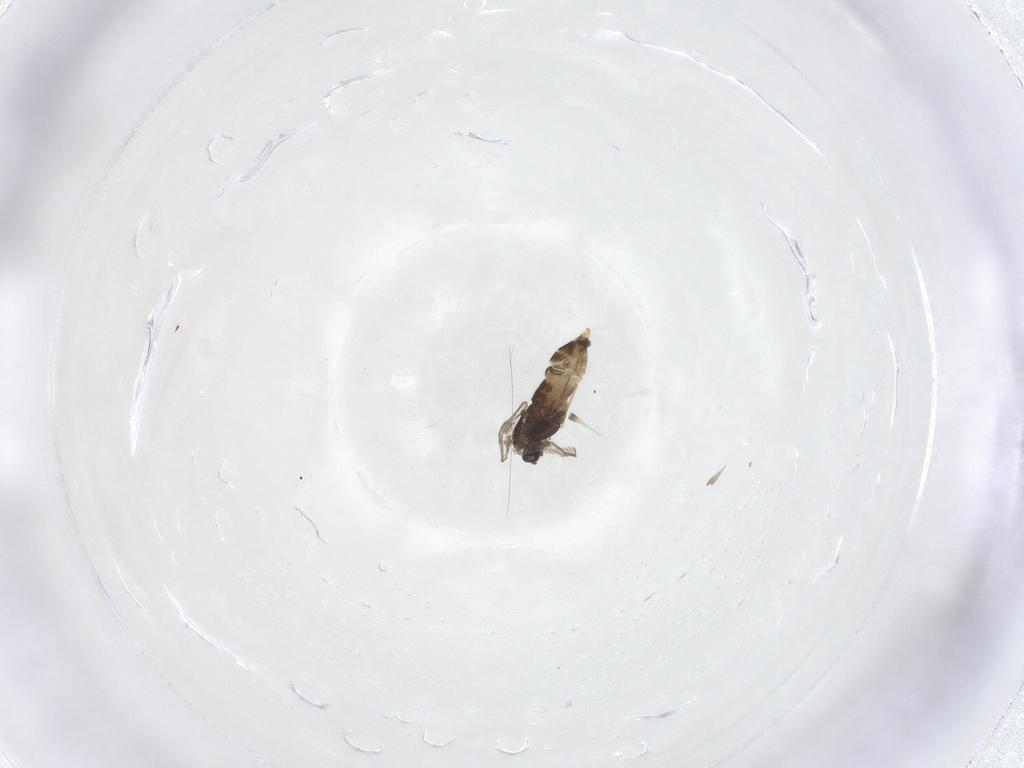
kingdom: Animalia
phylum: Arthropoda
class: Insecta
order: Diptera
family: Chironomidae
